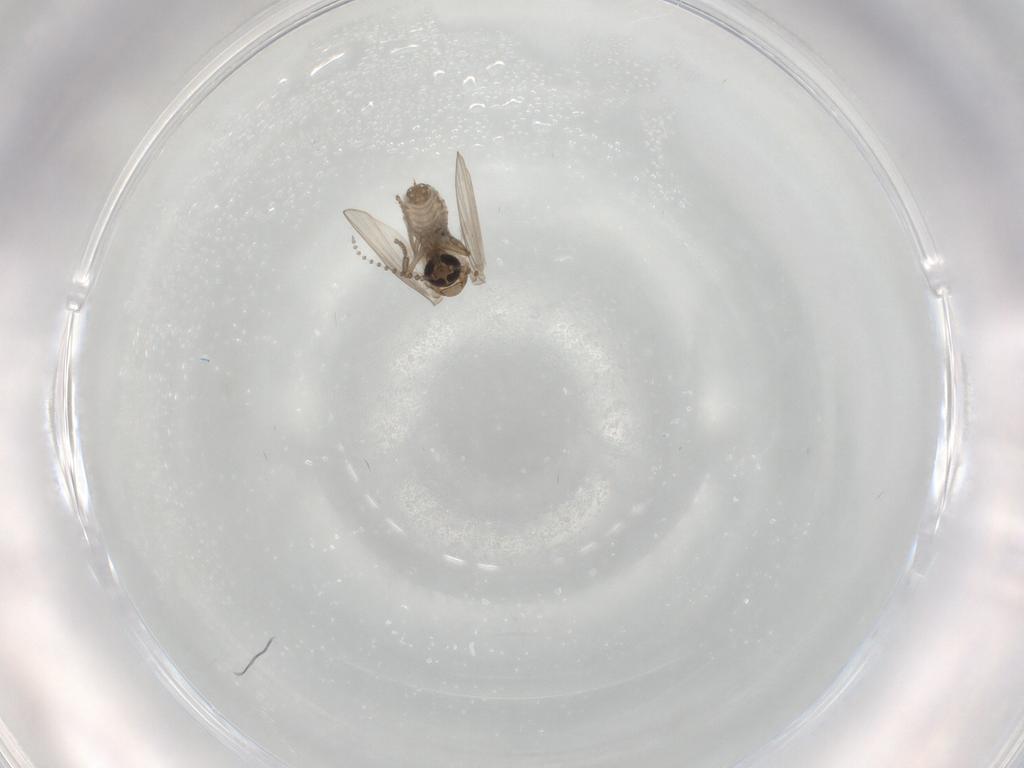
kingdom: Animalia
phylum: Arthropoda
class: Insecta
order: Diptera
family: Psychodidae
